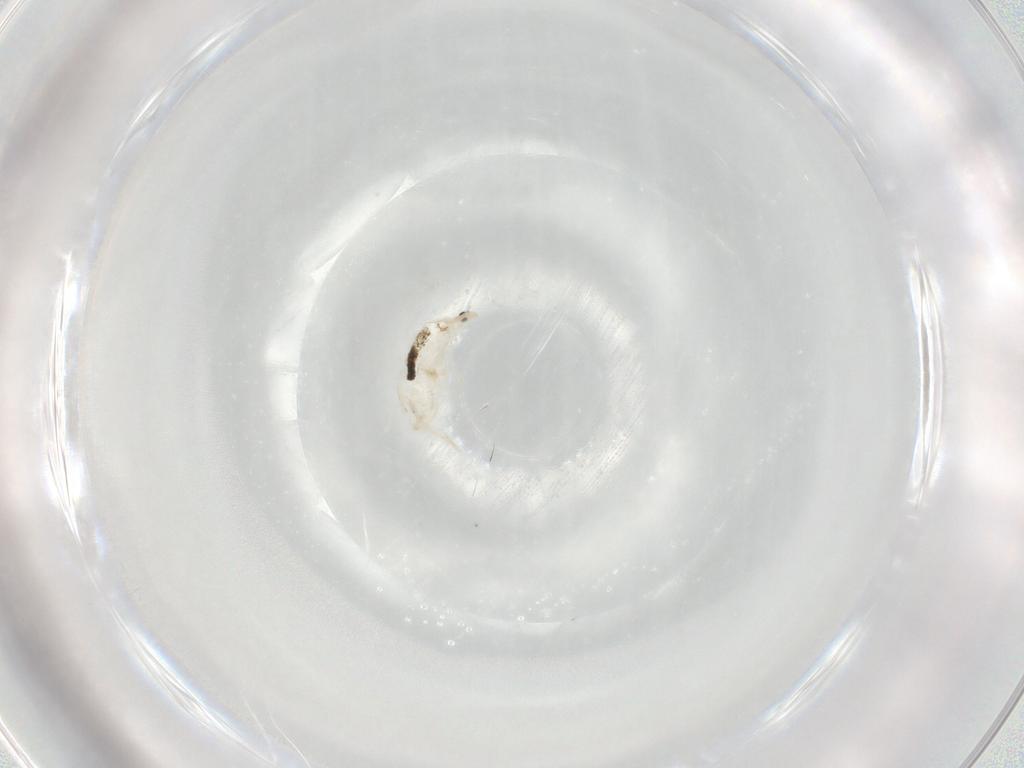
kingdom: Animalia
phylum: Arthropoda
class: Collembola
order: Entomobryomorpha
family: Entomobryidae
